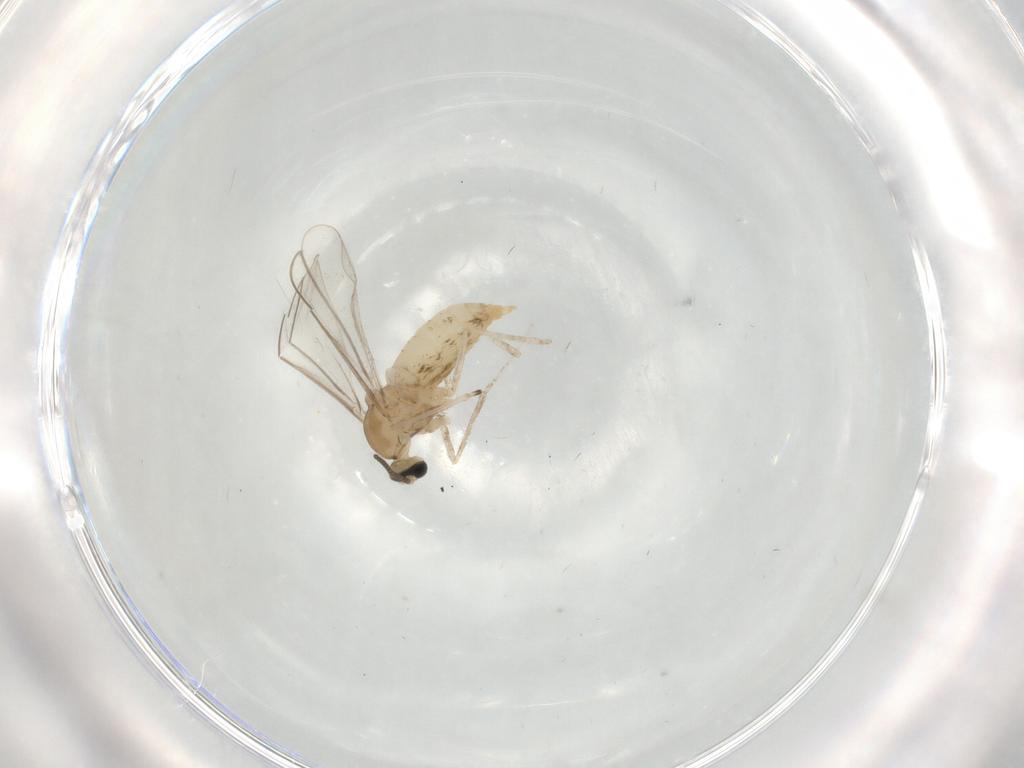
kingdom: Animalia
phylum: Arthropoda
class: Insecta
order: Diptera
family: Cecidomyiidae
